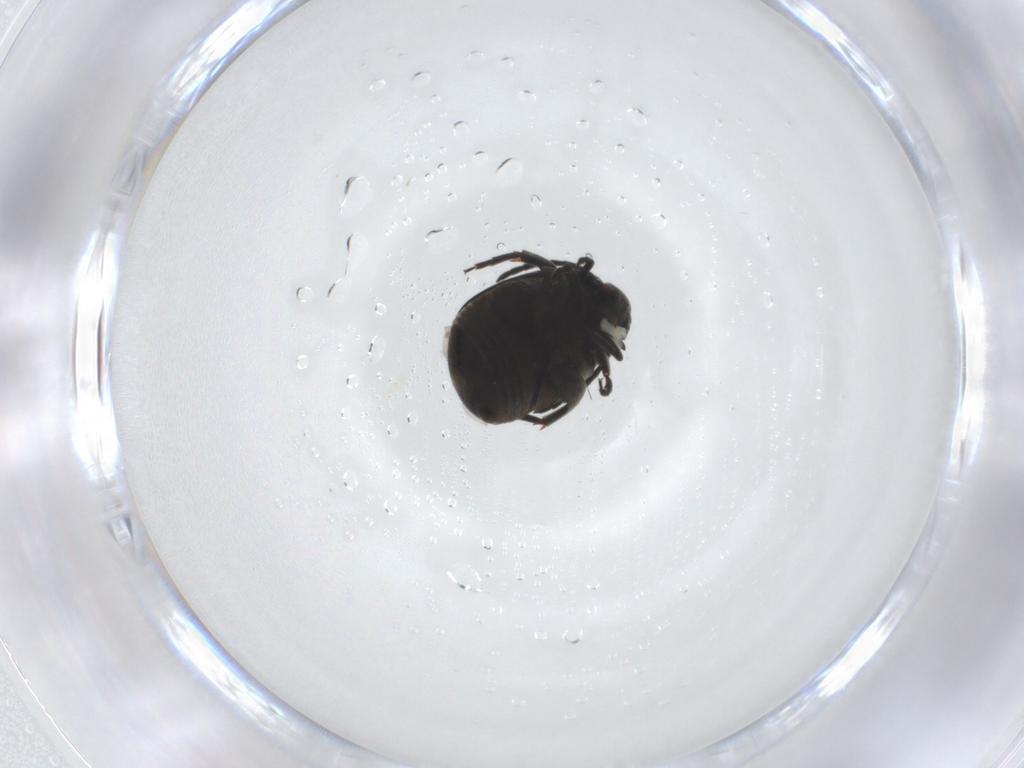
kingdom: Animalia
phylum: Arthropoda
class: Insecta
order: Coleoptera
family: Chrysomelidae
